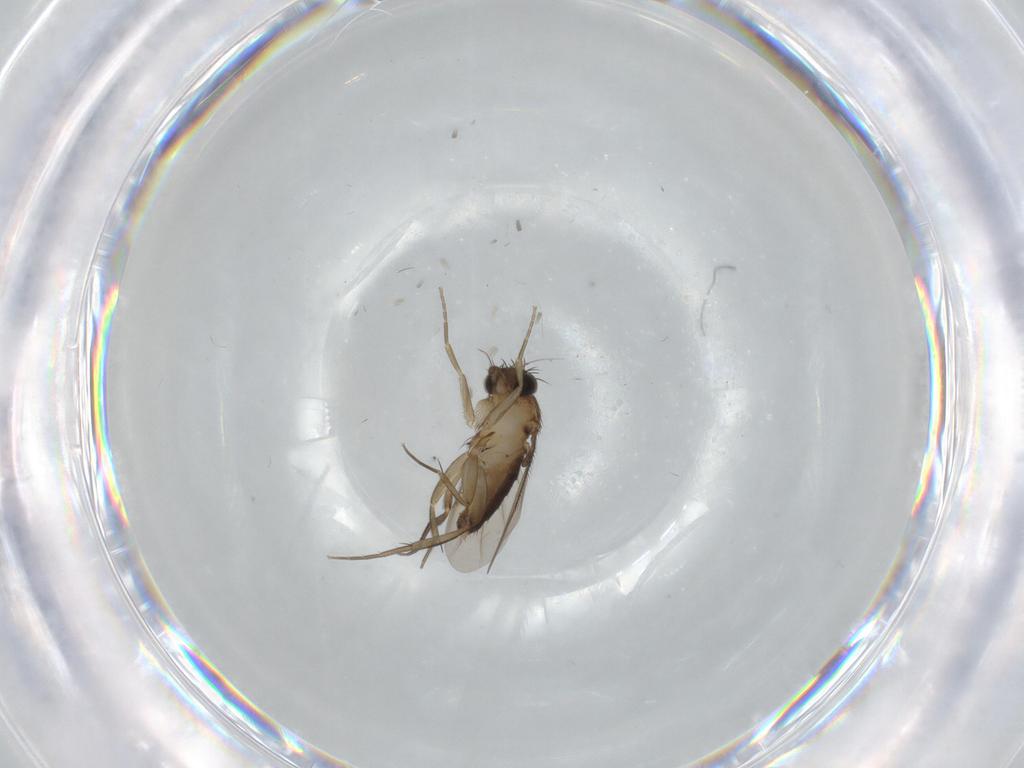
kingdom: Animalia
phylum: Arthropoda
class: Insecta
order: Diptera
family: Phoridae
